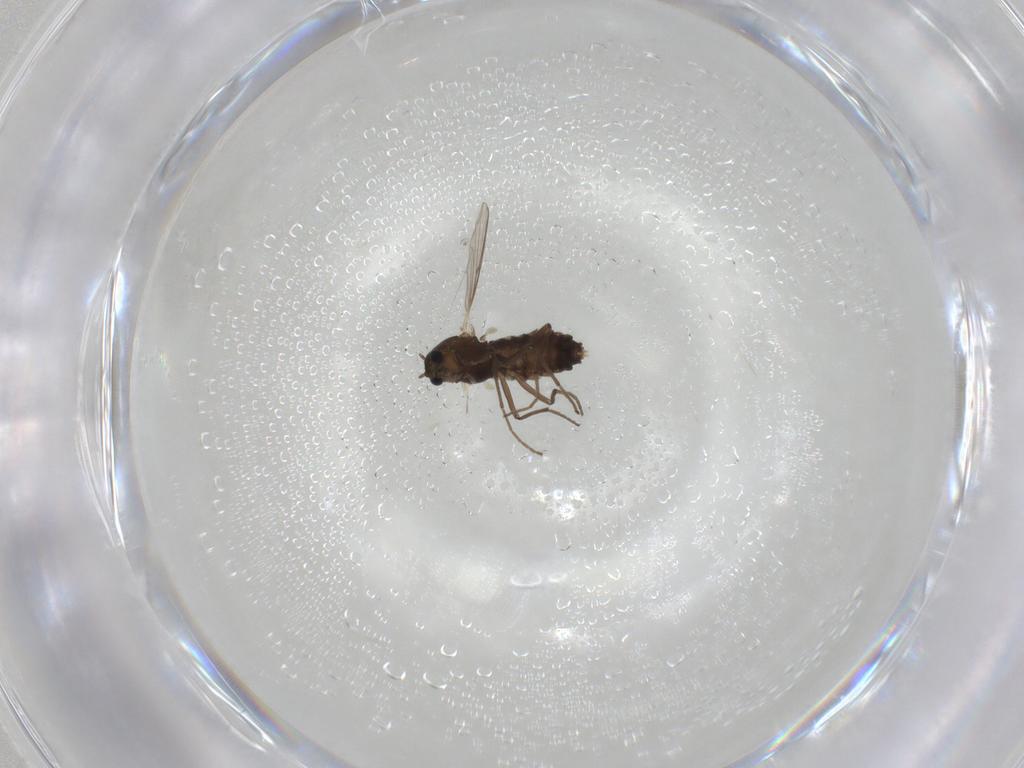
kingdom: Animalia
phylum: Arthropoda
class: Insecta
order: Diptera
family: Chironomidae
